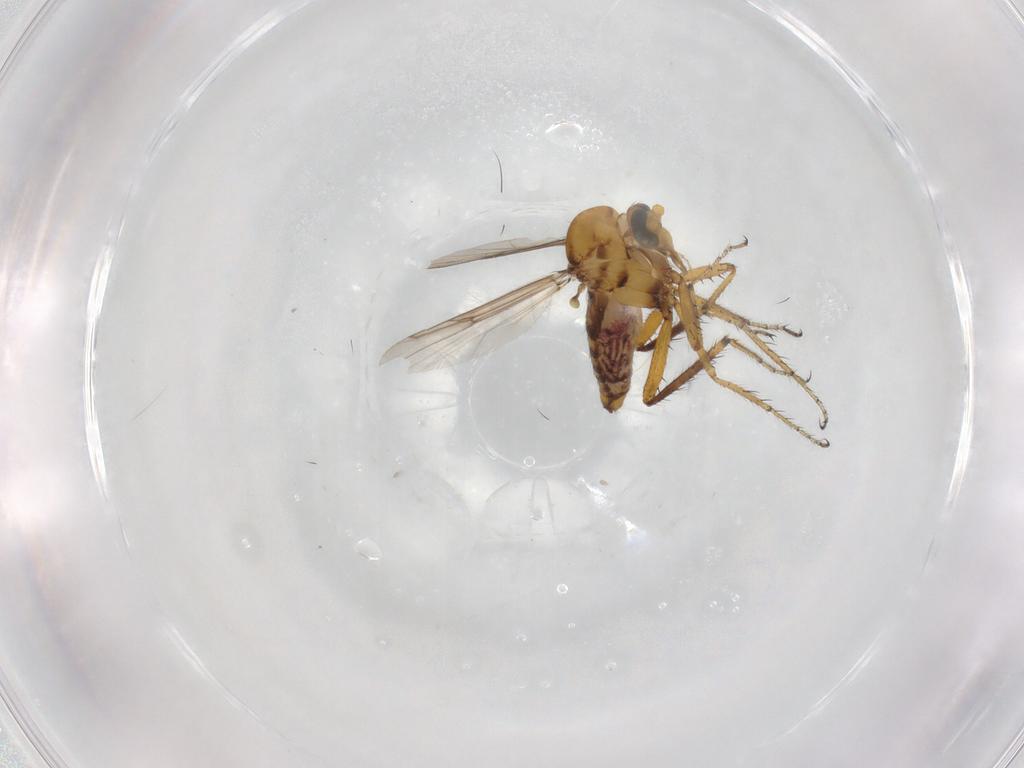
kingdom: Animalia
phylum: Arthropoda
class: Insecta
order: Diptera
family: Ceratopogonidae
